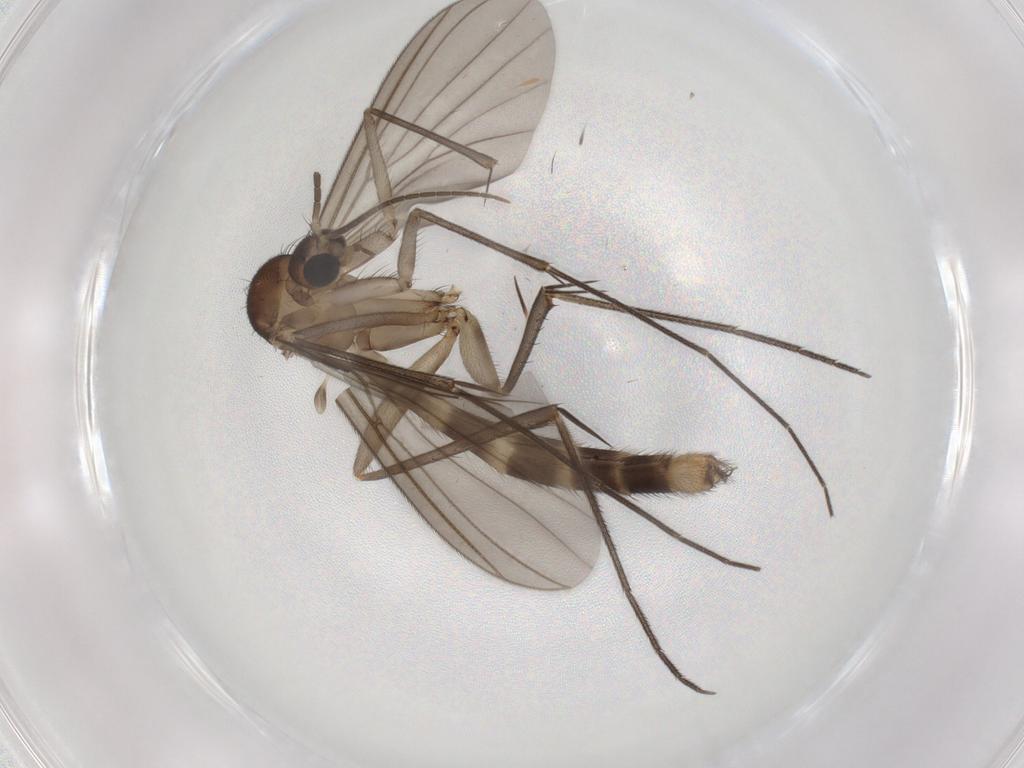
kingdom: Animalia
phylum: Arthropoda
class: Insecta
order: Diptera
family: Mycetophilidae
